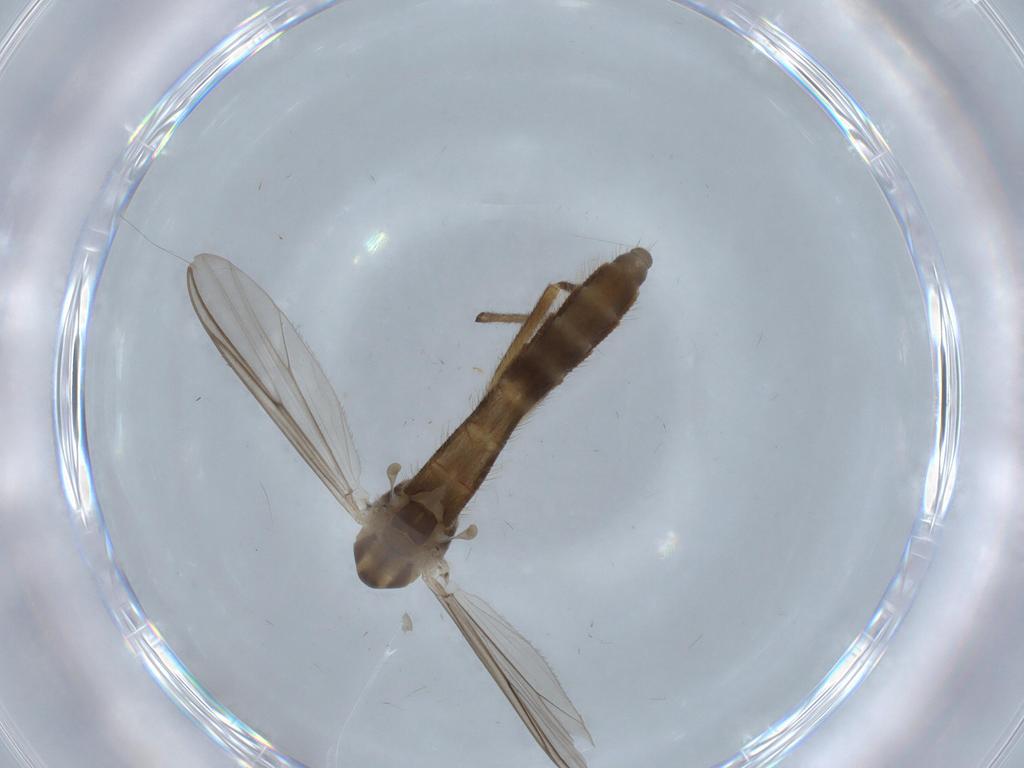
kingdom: Animalia
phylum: Arthropoda
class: Insecta
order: Diptera
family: Chironomidae
